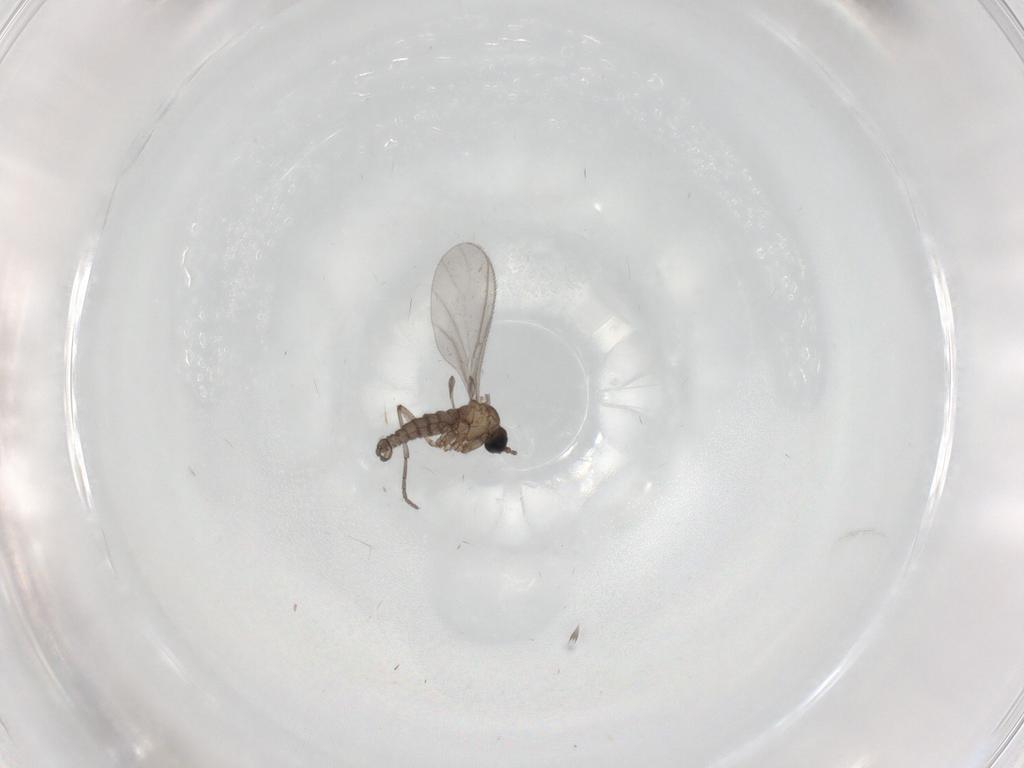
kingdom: Animalia
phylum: Arthropoda
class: Insecta
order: Diptera
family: Sciaridae
